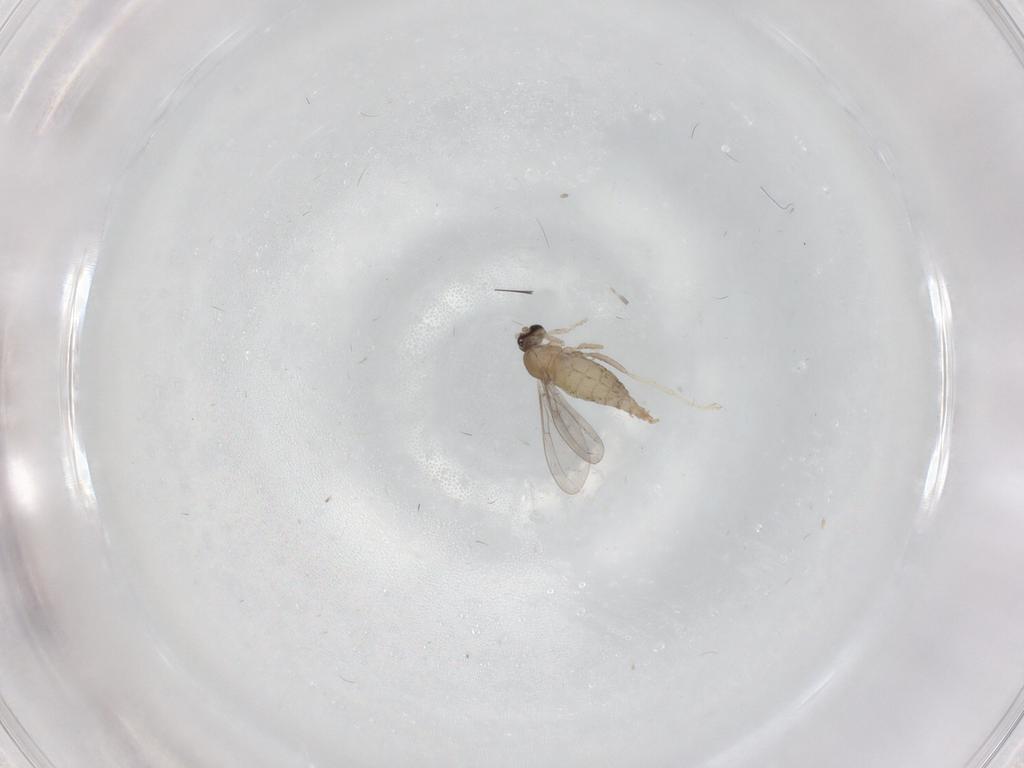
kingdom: Animalia
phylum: Arthropoda
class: Insecta
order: Diptera
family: Cecidomyiidae
